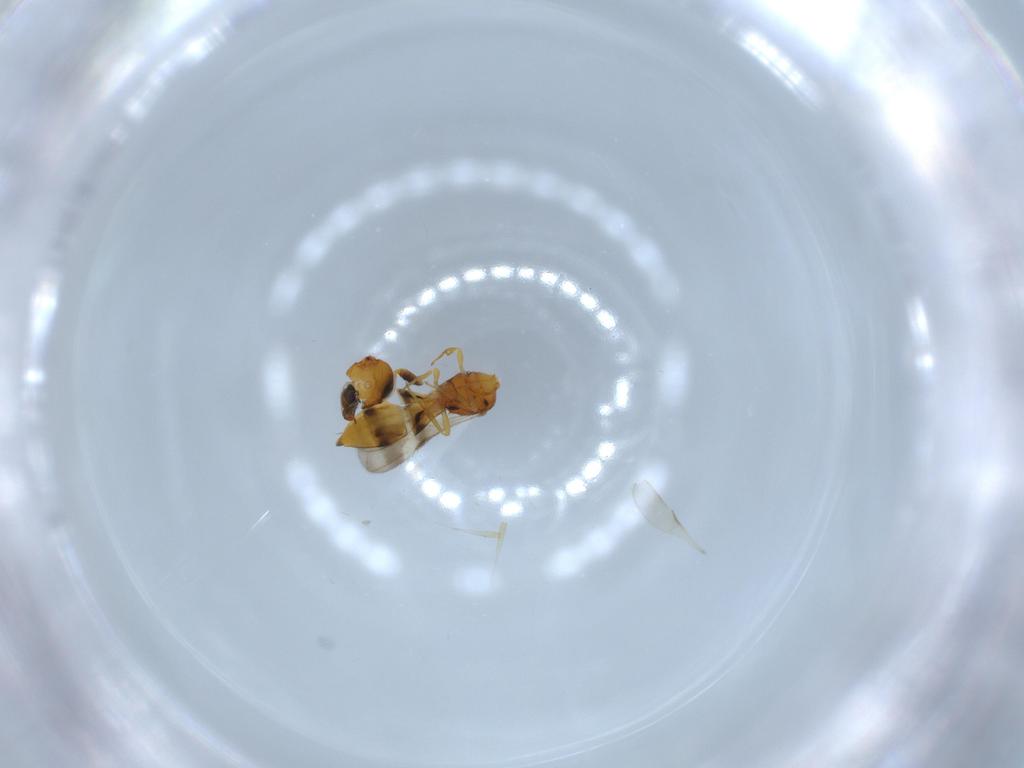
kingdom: Animalia
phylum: Arthropoda
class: Insecta
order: Hymenoptera
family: Scelionidae
